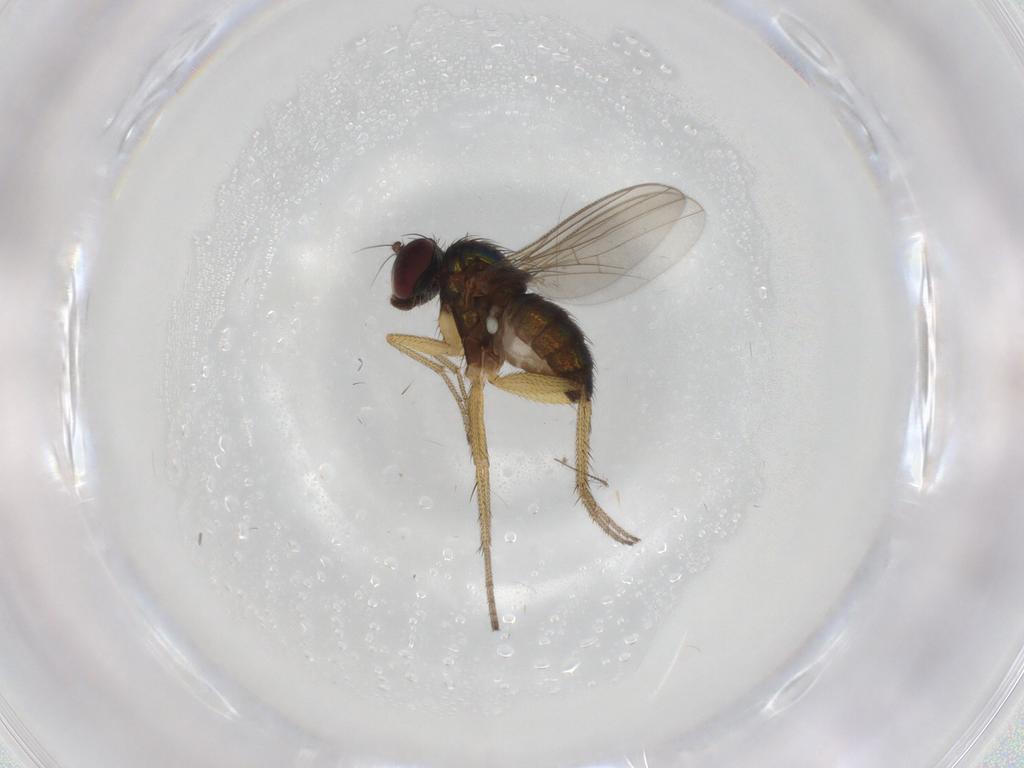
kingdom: Animalia
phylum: Arthropoda
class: Insecta
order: Diptera
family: Dolichopodidae
